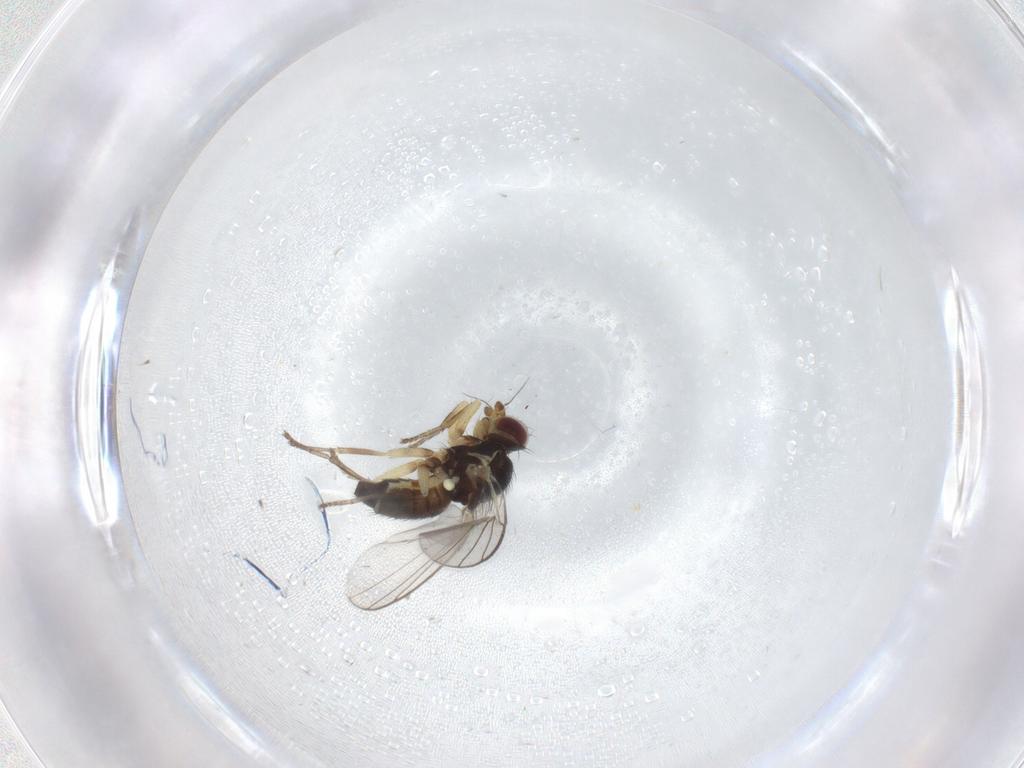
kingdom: Animalia
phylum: Arthropoda
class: Insecta
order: Diptera
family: Agromyzidae
